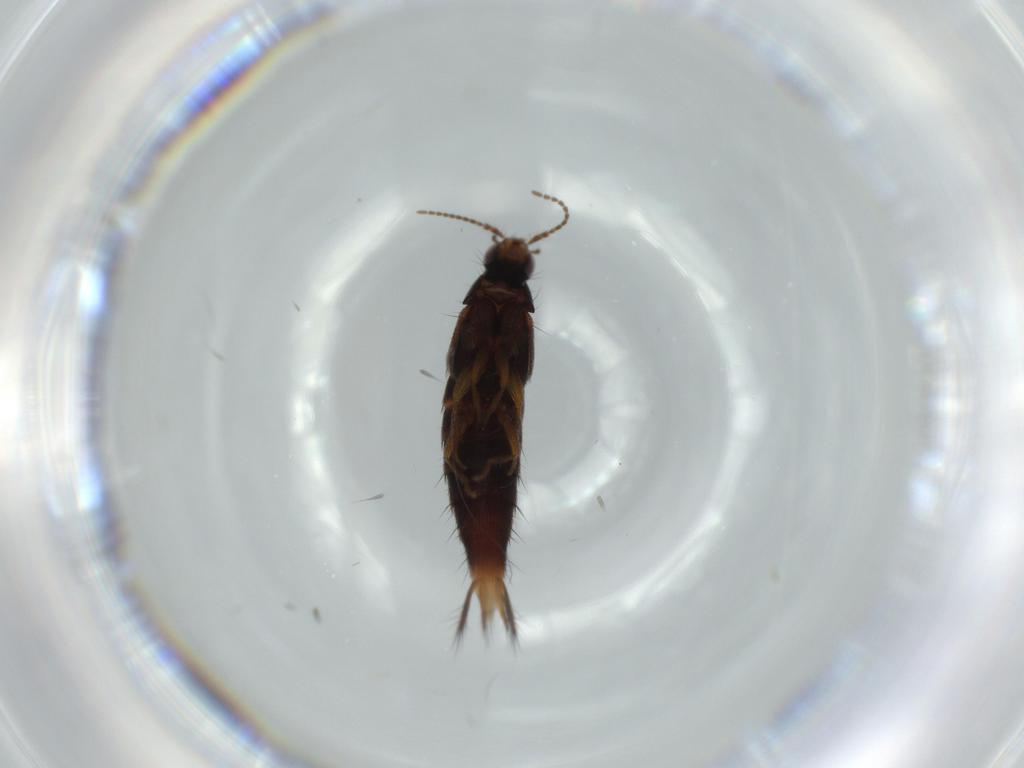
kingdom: Animalia
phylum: Arthropoda
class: Insecta
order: Coleoptera
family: Staphylinidae
